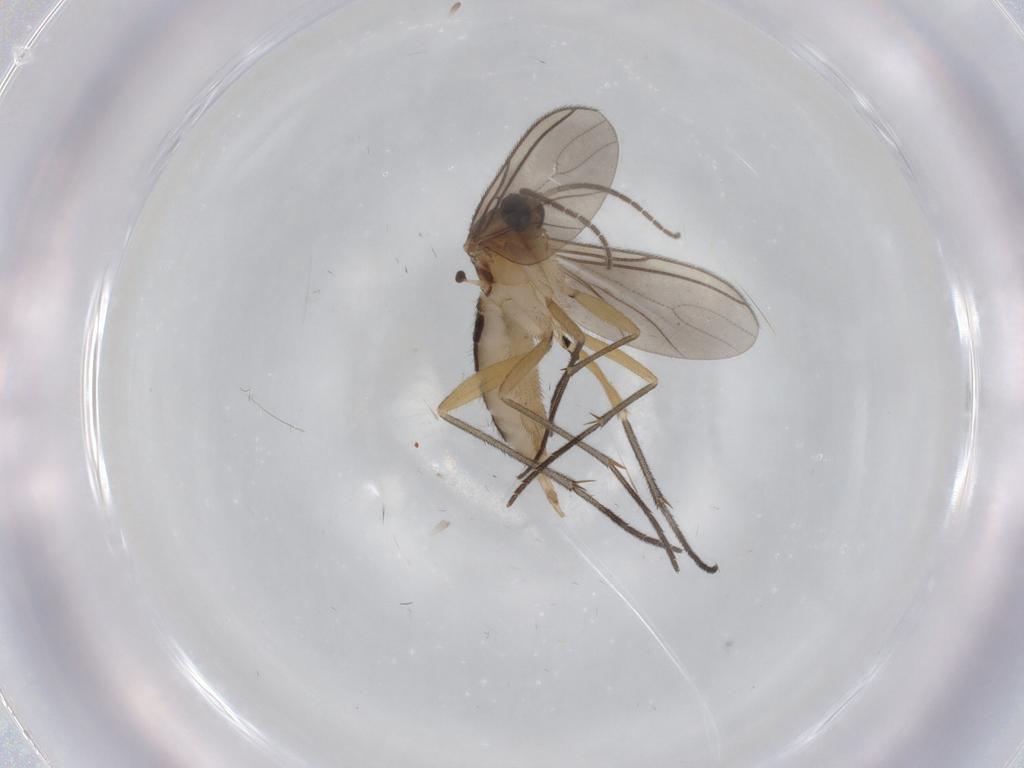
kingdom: Animalia
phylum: Arthropoda
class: Insecta
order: Diptera
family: Sciaridae
